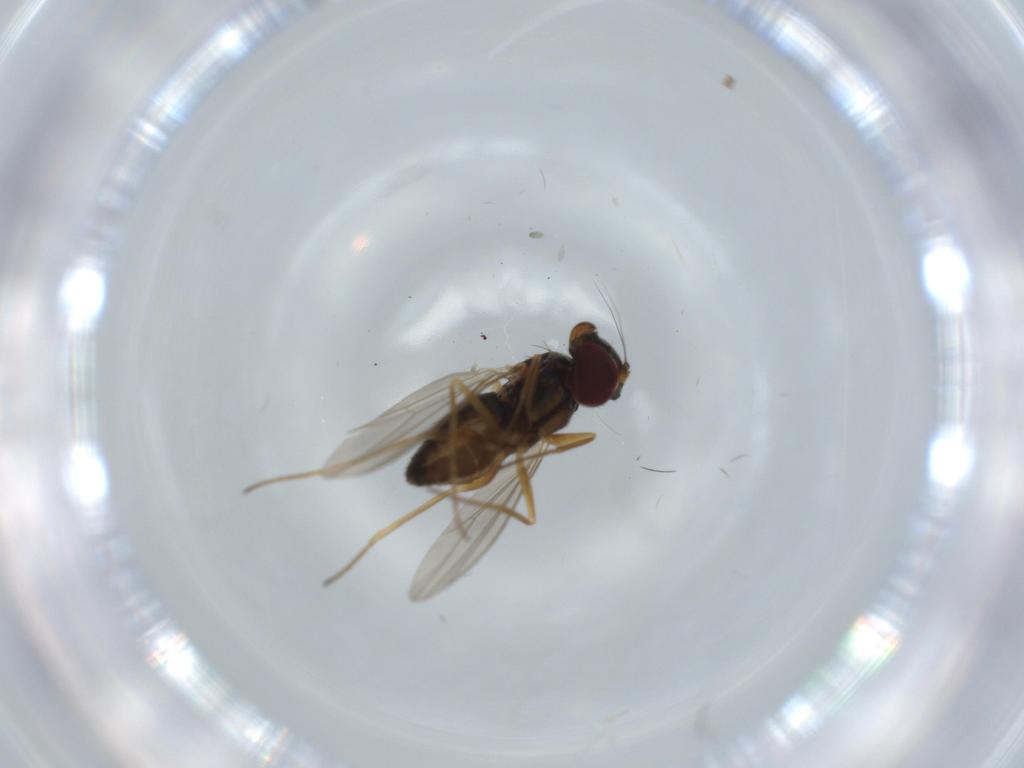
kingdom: Animalia
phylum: Arthropoda
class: Insecta
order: Diptera
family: Dolichopodidae
